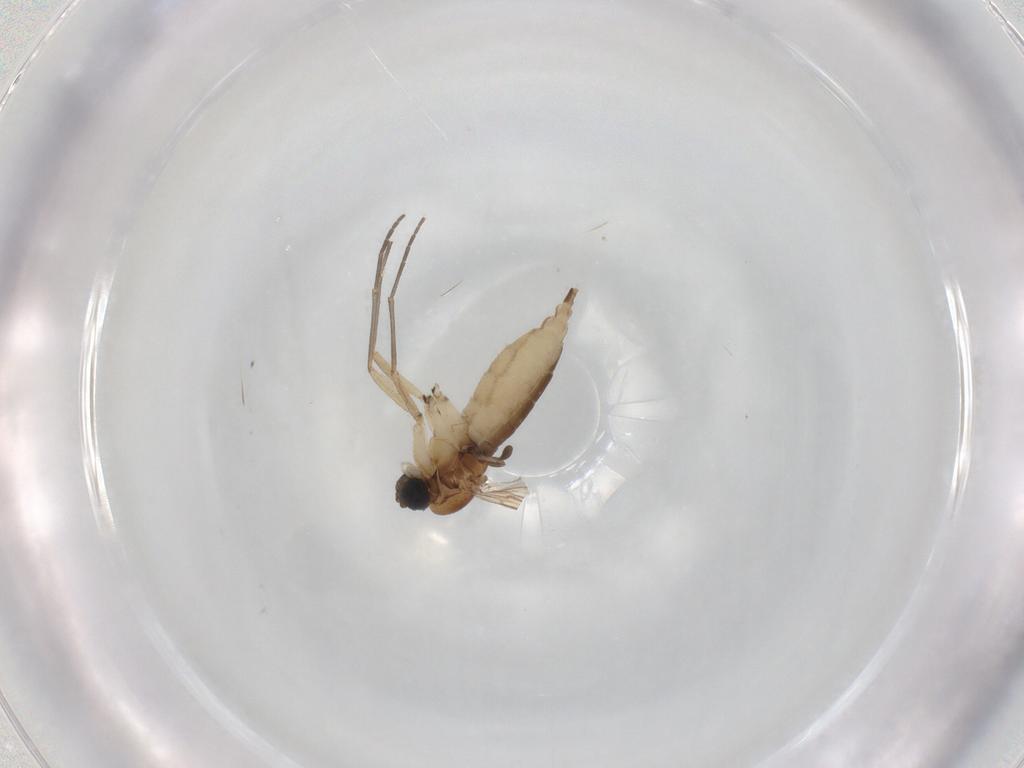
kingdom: Animalia
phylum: Arthropoda
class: Insecta
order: Diptera
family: Sciaridae
